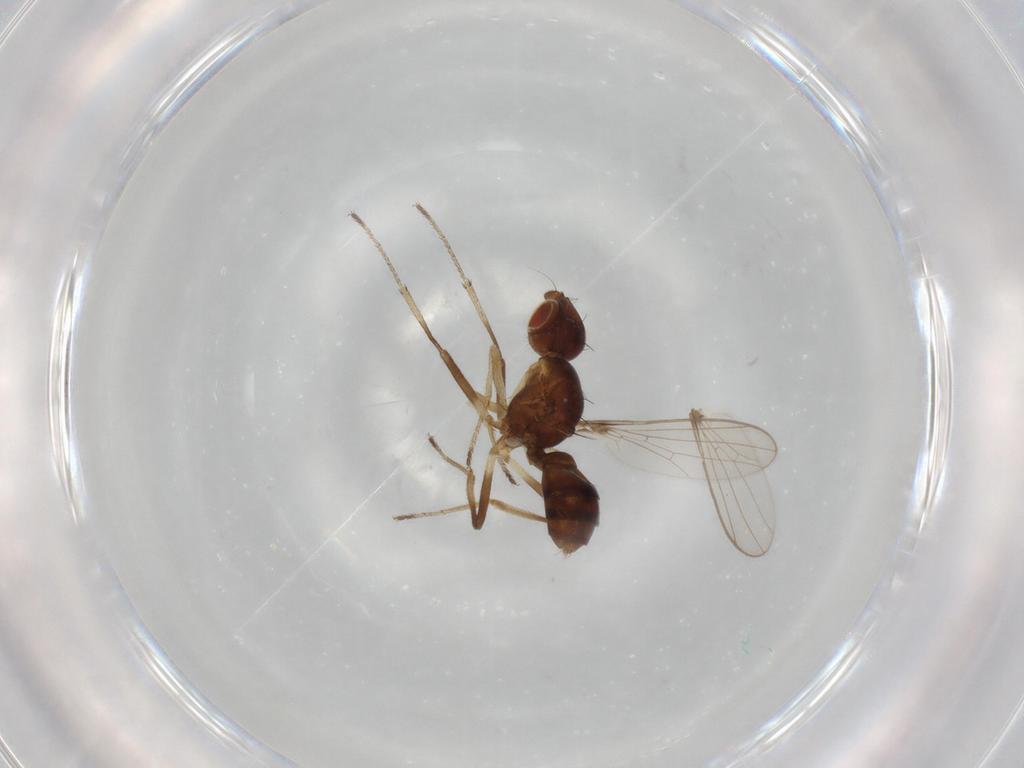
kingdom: Animalia
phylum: Arthropoda
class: Insecta
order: Diptera
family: Sepsidae
